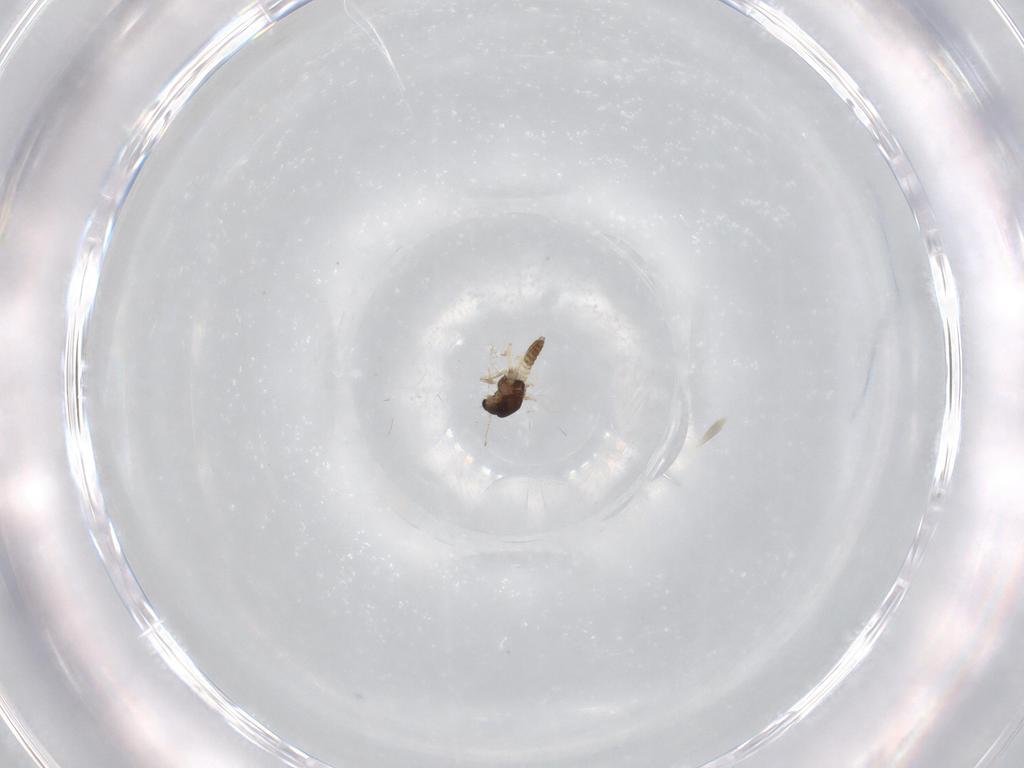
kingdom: Animalia
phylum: Arthropoda
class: Insecta
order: Diptera
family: Chironomidae
